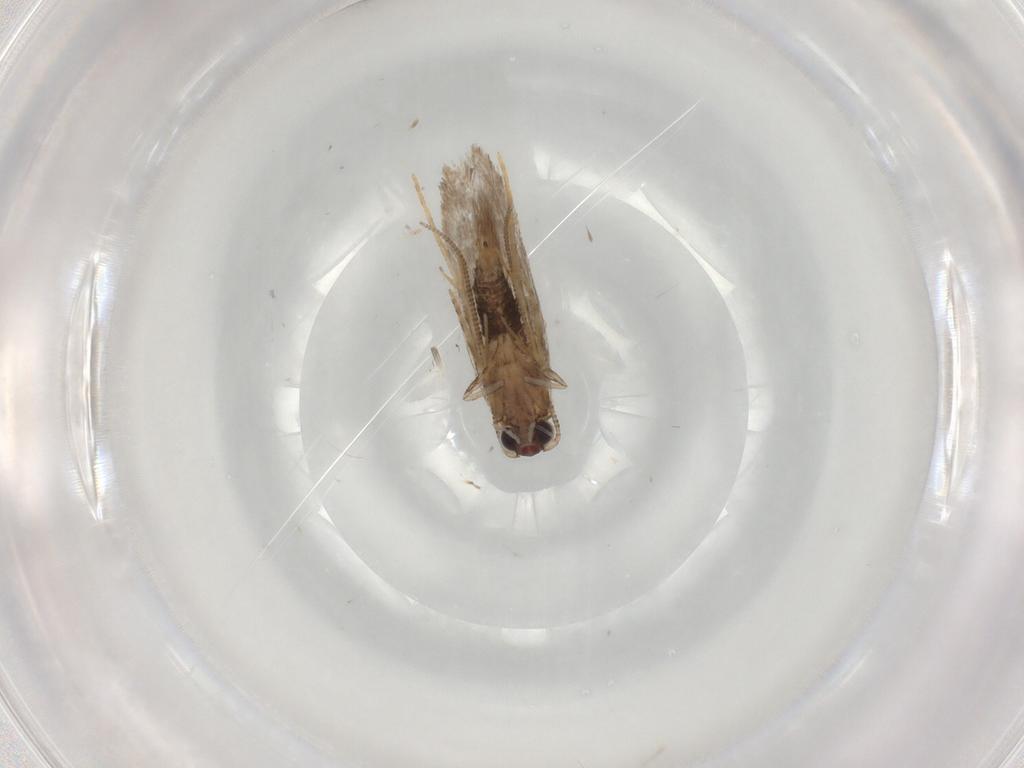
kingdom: Animalia
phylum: Arthropoda
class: Insecta
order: Lepidoptera
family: Tineidae
